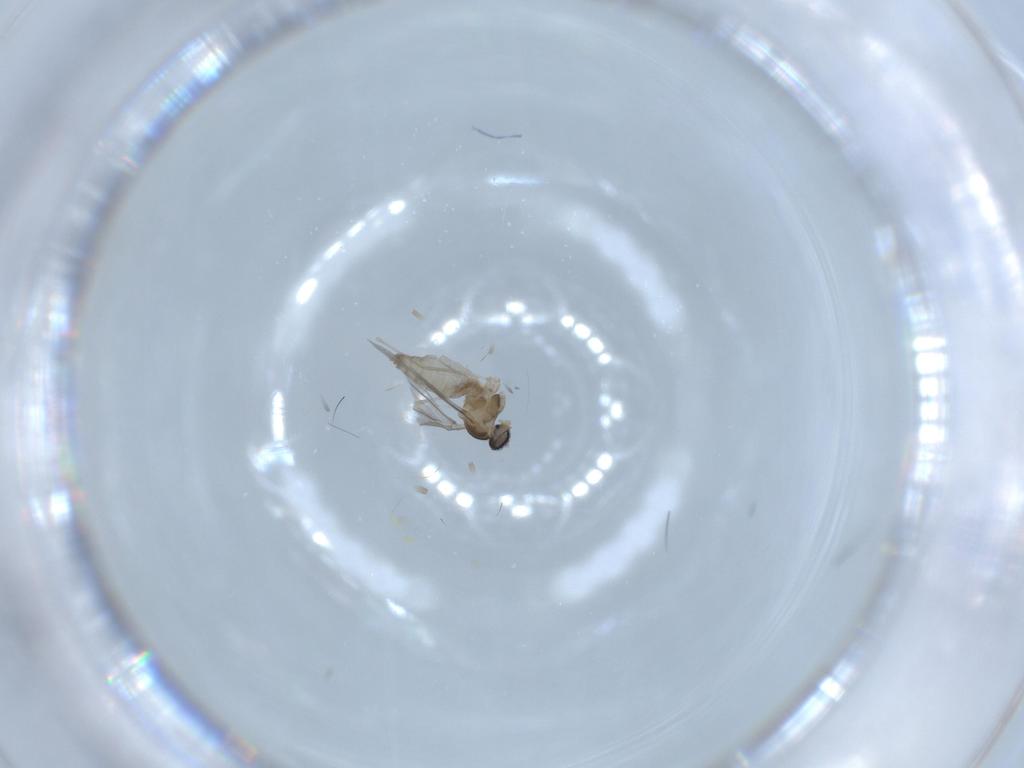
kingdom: Animalia
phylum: Arthropoda
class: Insecta
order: Diptera
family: Cecidomyiidae
